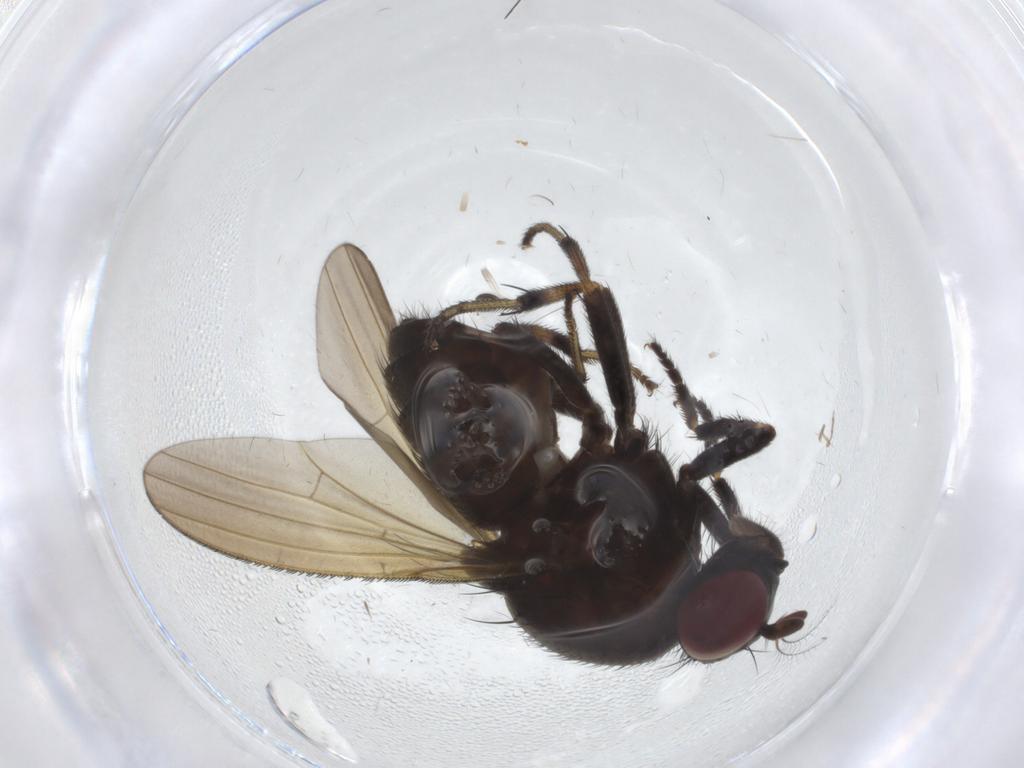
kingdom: Animalia
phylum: Arthropoda
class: Insecta
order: Diptera
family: Lauxaniidae
